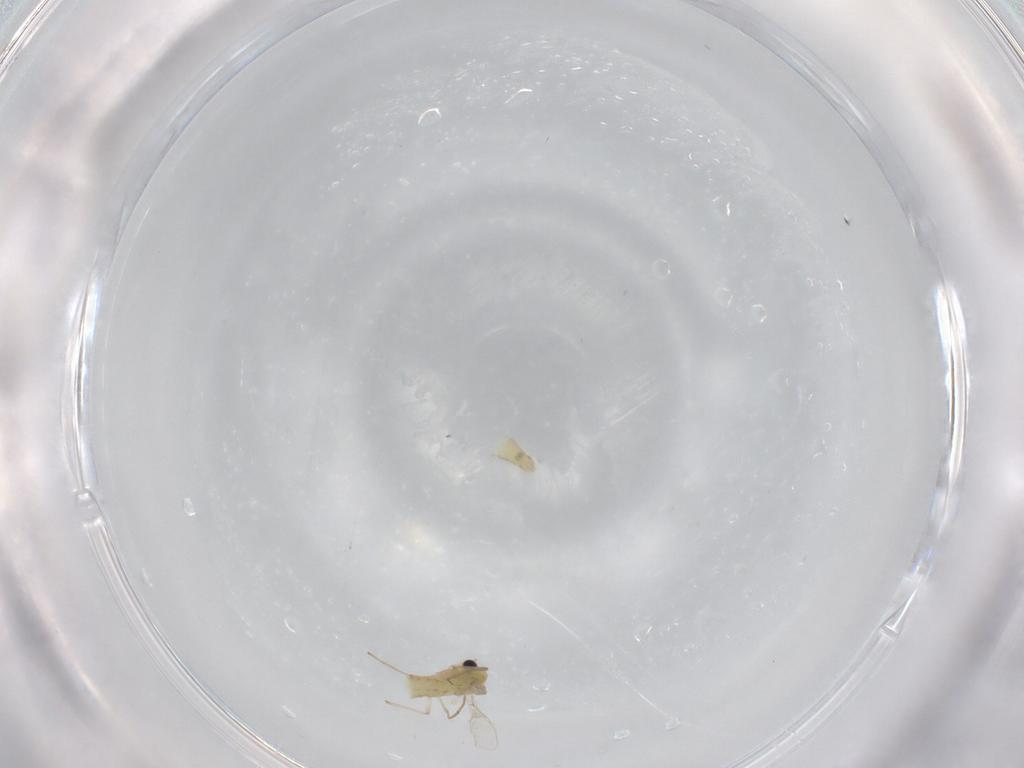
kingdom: Animalia
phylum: Arthropoda
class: Insecta
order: Diptera
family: Chironomidae
